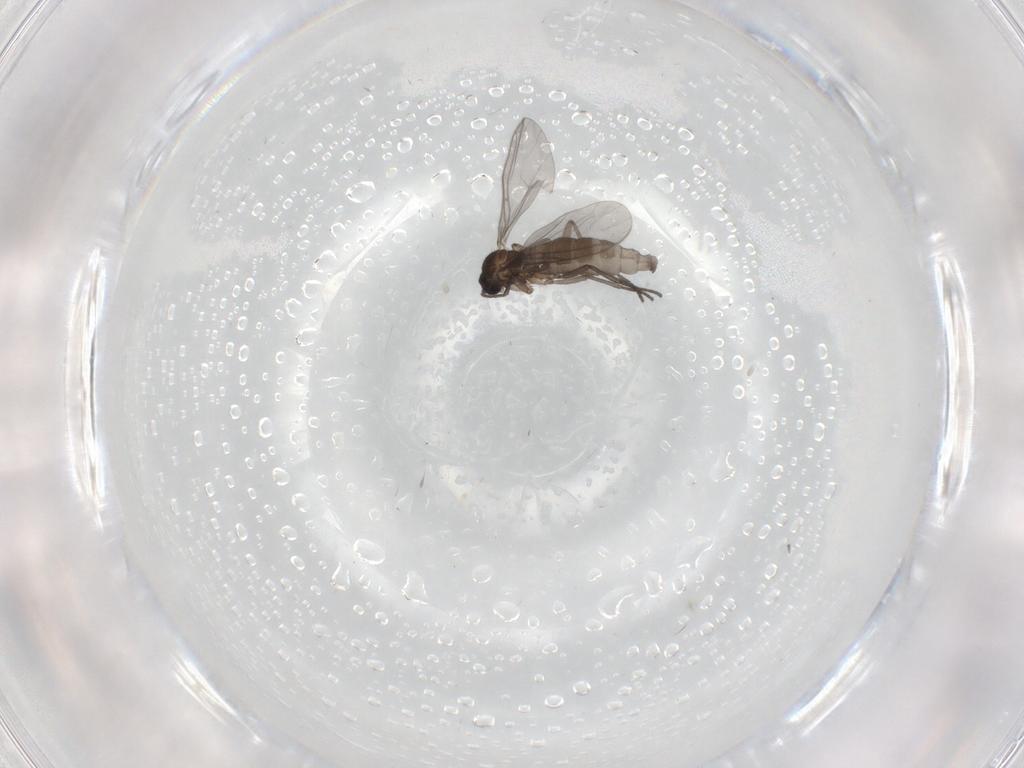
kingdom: Animalia
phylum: Arthropoda
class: Insecta
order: Diptera
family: Sciaridae
